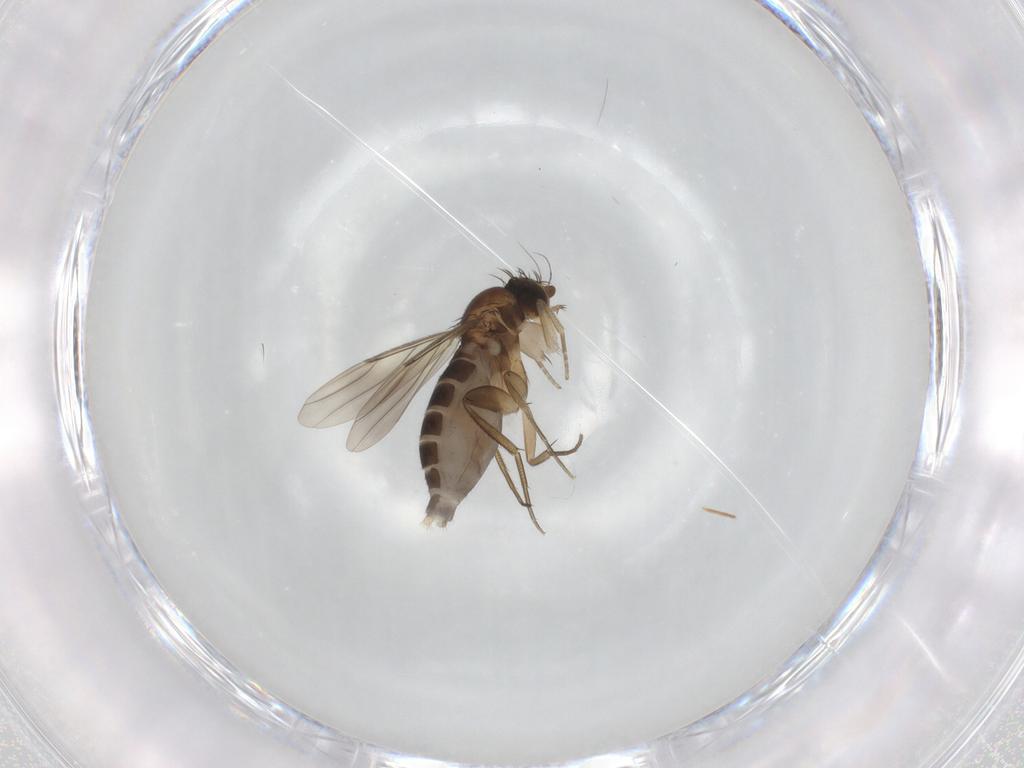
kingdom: Animalia
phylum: Arthropoda
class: Insecta
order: Diptera
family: Phoridae
